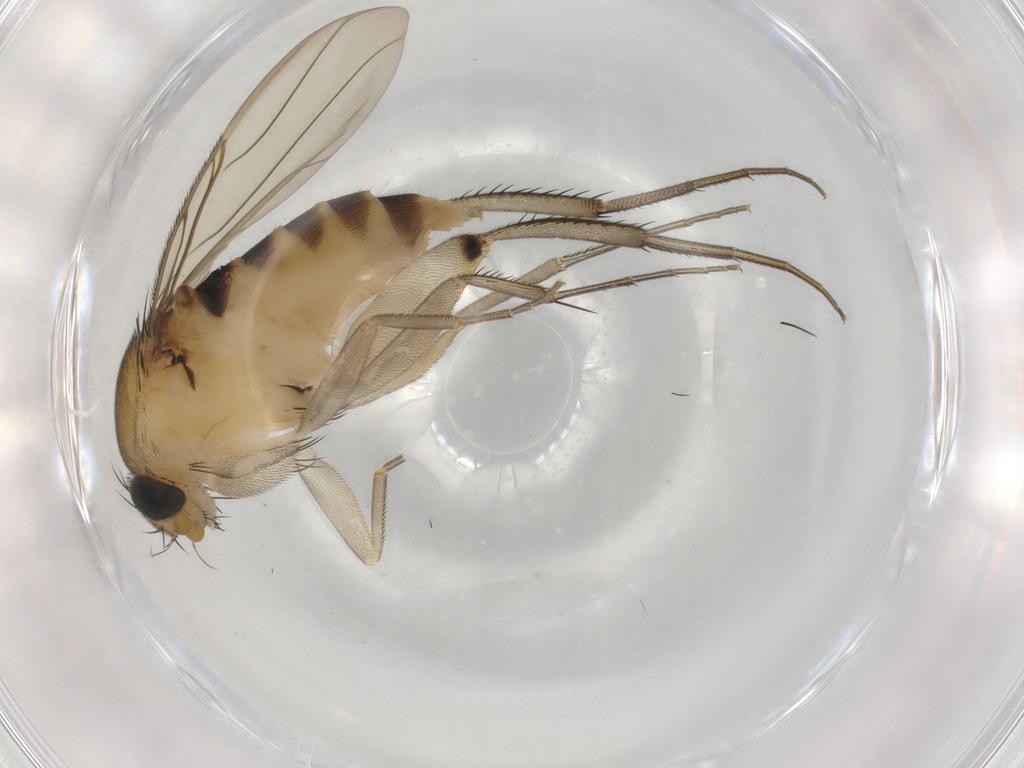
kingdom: Animalia
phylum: Arthropoda
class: Insecta
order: Diptera
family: Phoridae
